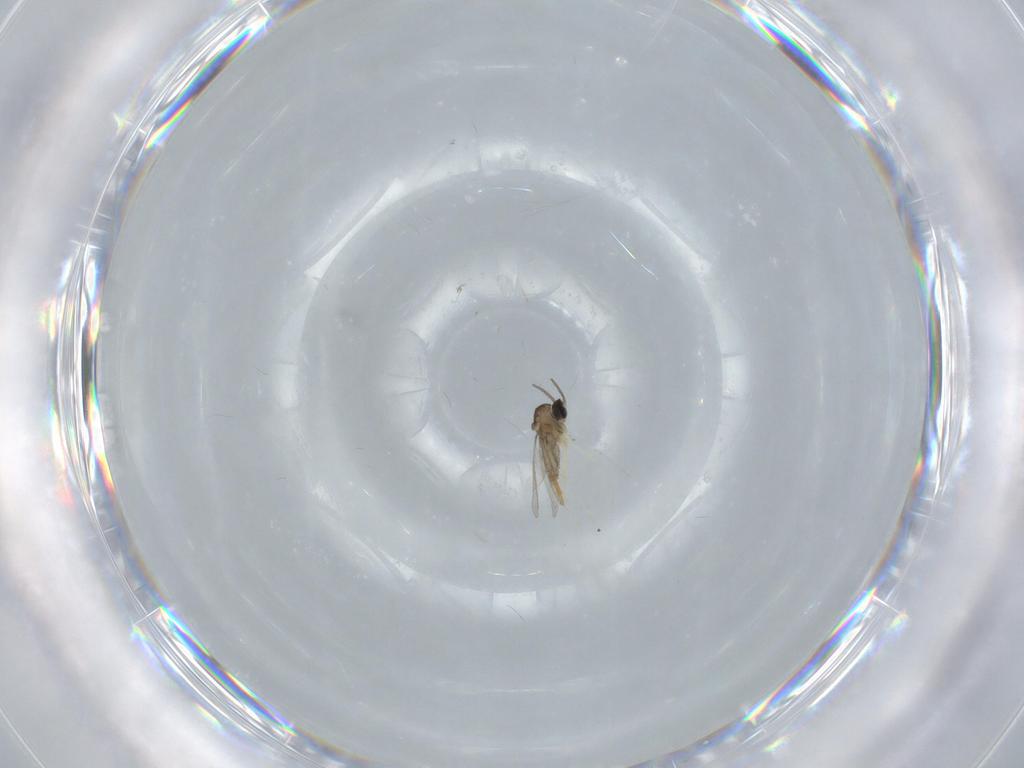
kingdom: Animalia
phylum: Arthropoda
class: Insecta
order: Diptera
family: Cecidomyiidae
